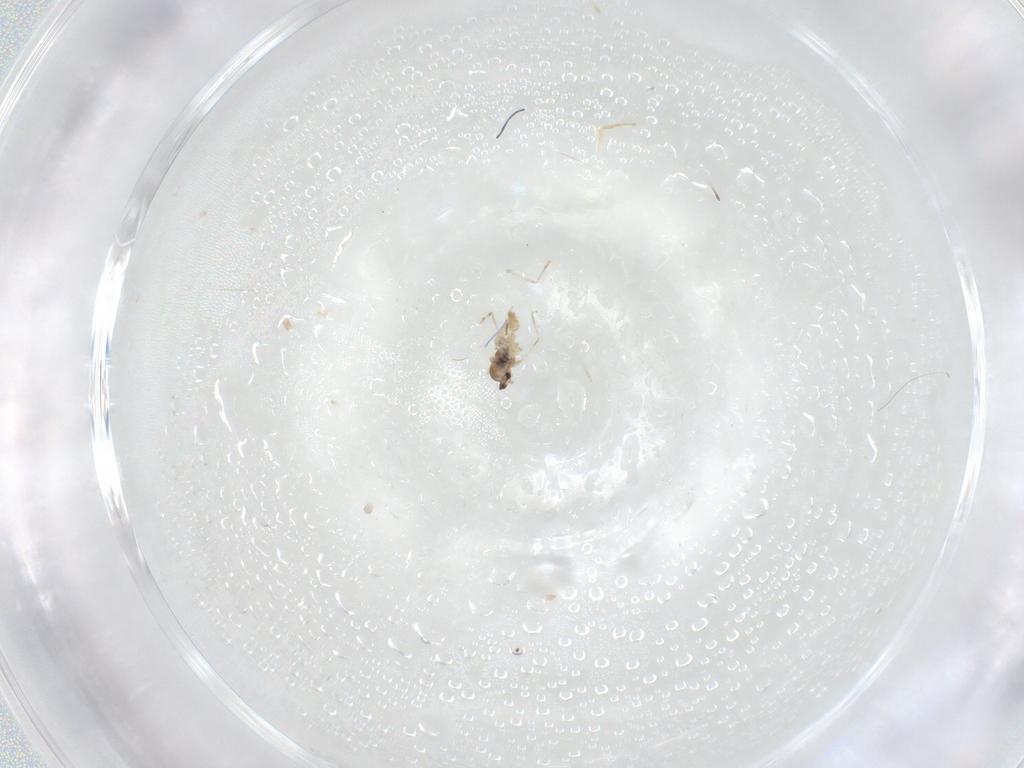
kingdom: Animalia
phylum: Arthropoda
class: Insecta
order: Diptera
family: Cecidomyiidae
